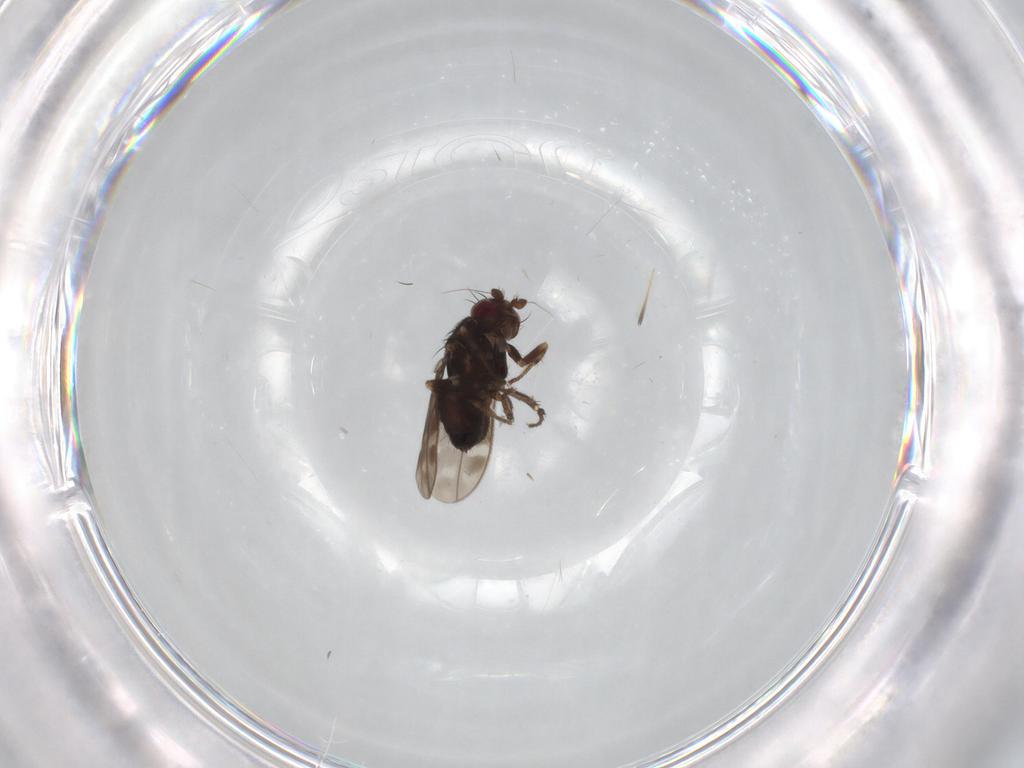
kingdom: Animalia
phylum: Arthropoda
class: Insecta
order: Diptera
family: Sphaeroceridae
